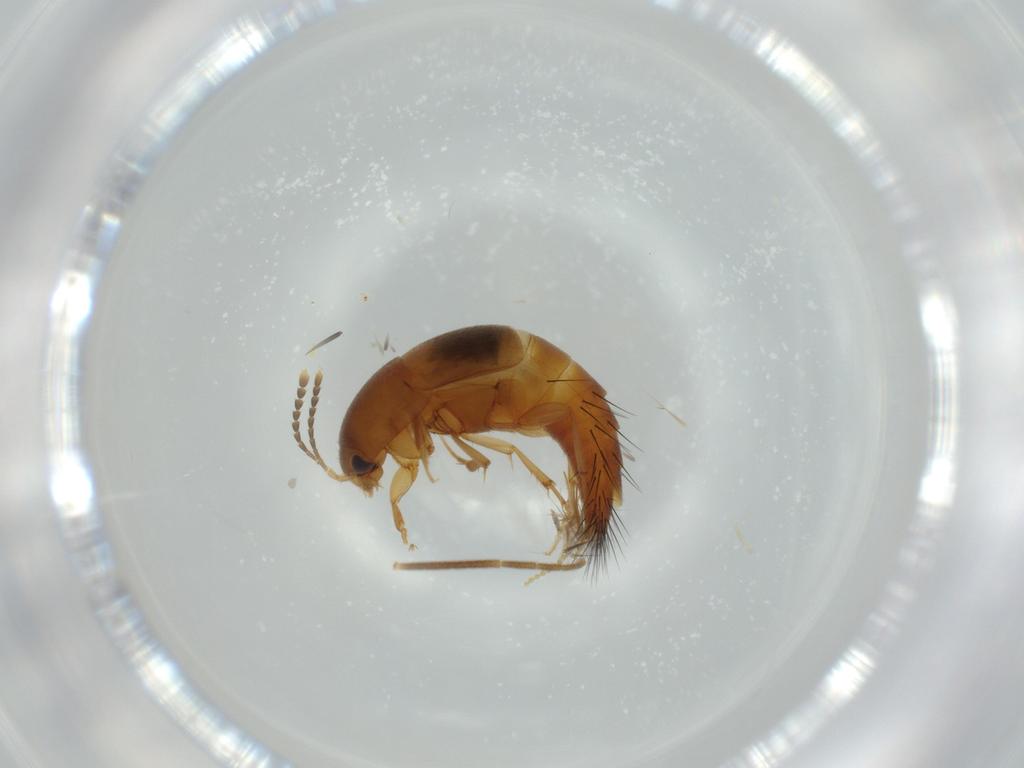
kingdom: Animalia
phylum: Arthropoda
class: Insecta
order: Coleoptera
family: Staphylinidae
